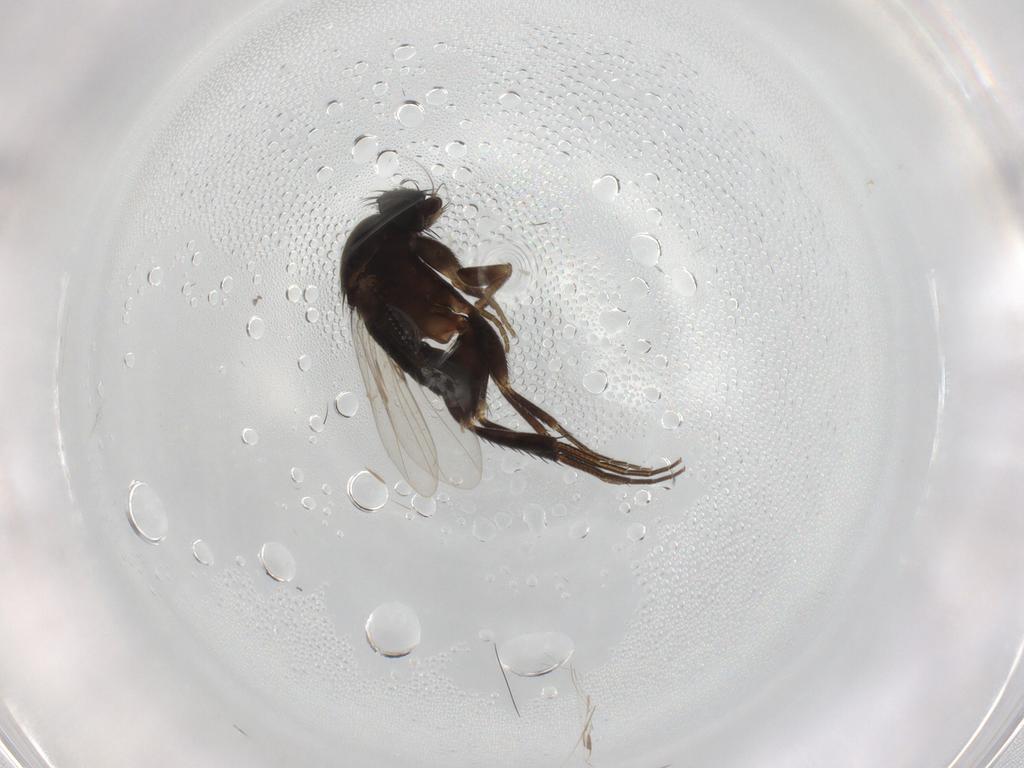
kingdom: Animalia
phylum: Arthropoda
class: Insecta
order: Diptera
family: Phoridae
